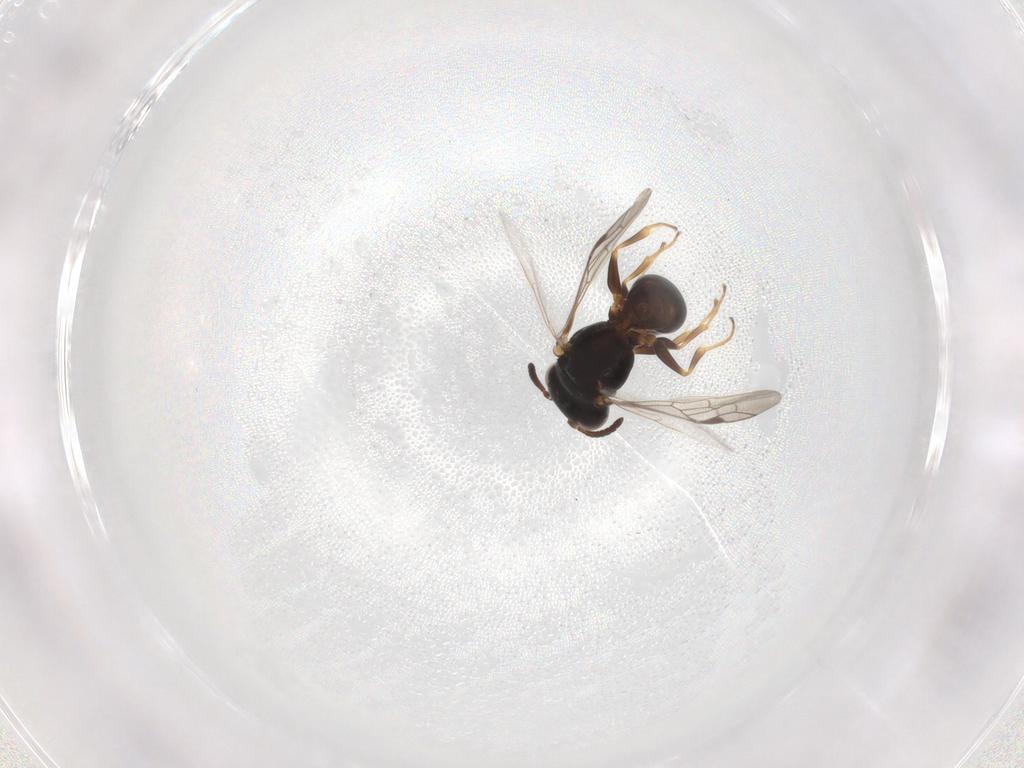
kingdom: Animalia
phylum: Arthropoda
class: Insecta
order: Hymenoptera
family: Pemphredonidae
